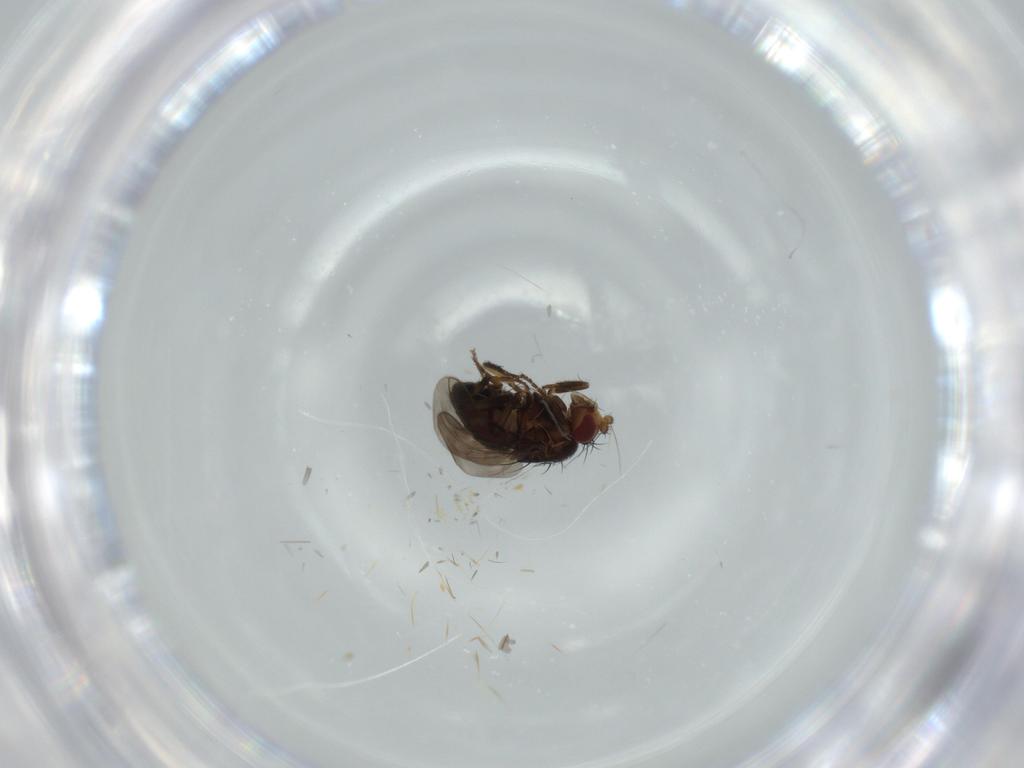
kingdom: Animalia
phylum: Arthropoda
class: Insecta
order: Diptera
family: Sphaeroceridae
